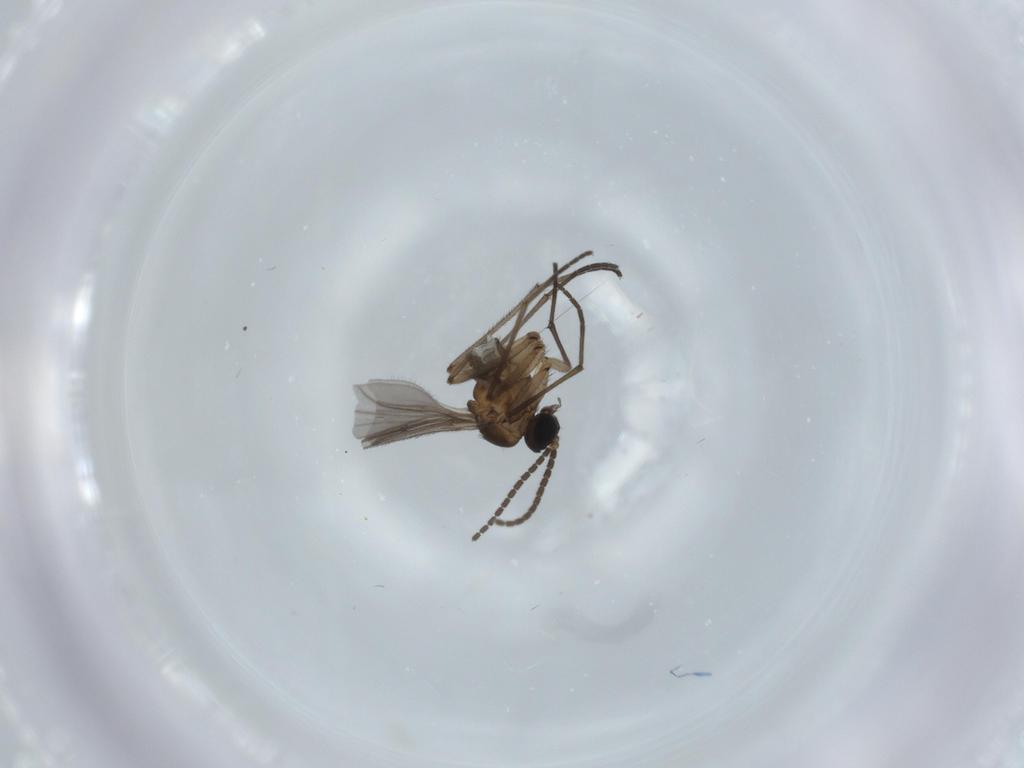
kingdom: Animalia
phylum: Arthropoda
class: Insecta
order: Diptera
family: Sciaridae
